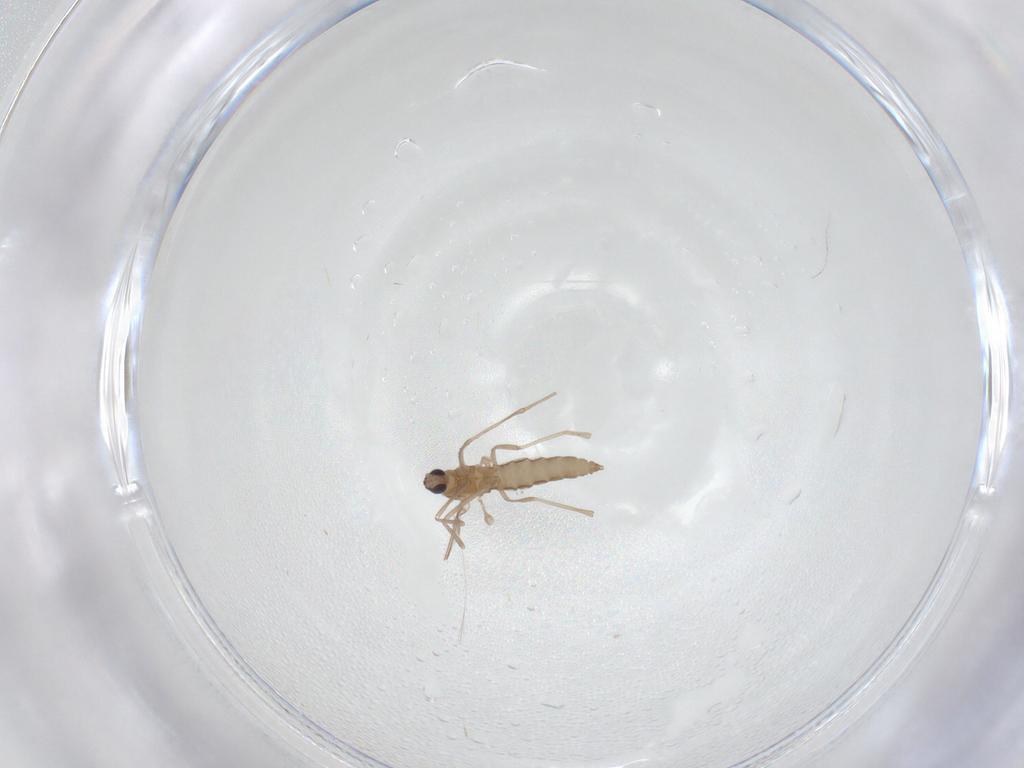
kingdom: Animalia
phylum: Arthropoda
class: Insecta
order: Diptera
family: Cecidomyiidae
